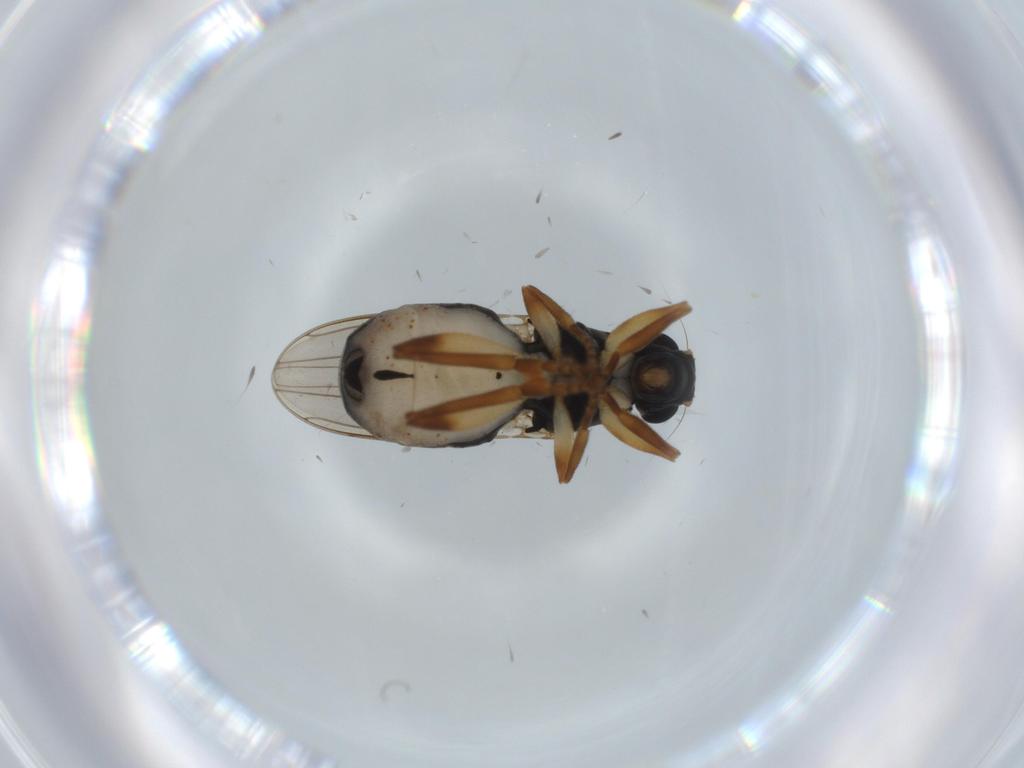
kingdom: Animalia
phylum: Arthropoda
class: Insecta
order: Diptera
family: Sphaeroceridae
